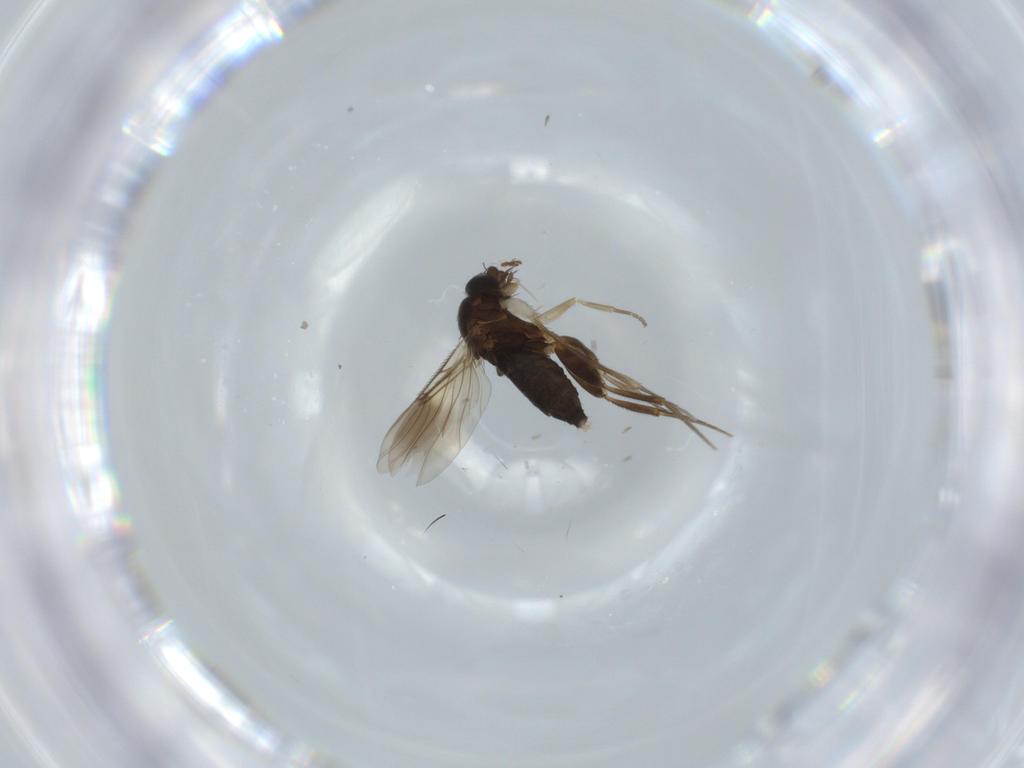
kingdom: Animalia
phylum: Arthropoda
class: Insecta
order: Diptera
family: Phoridae
